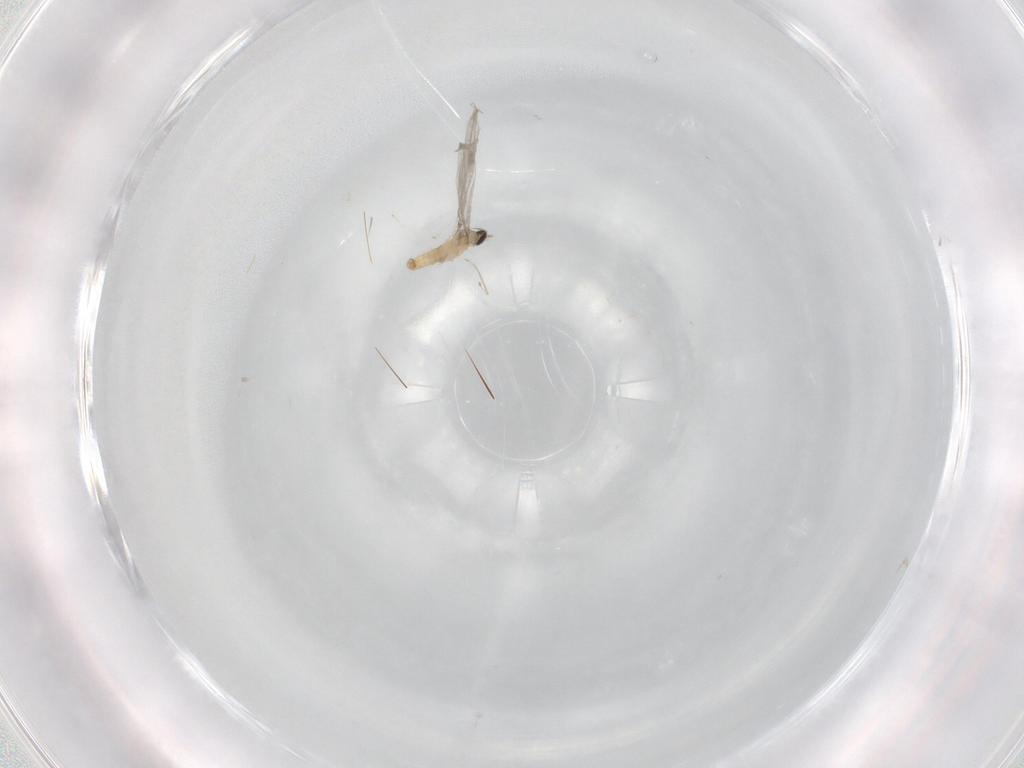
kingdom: Animalia
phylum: Arthropoda
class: Insecta
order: Diptera
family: Cecidomyiidae
